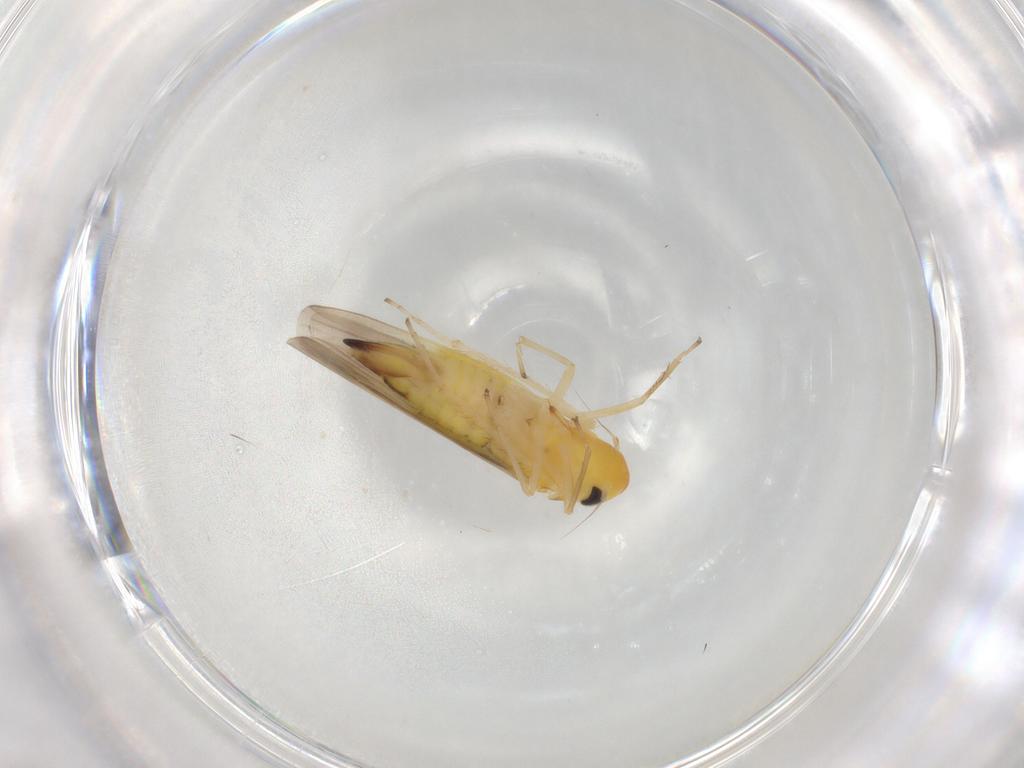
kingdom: Animalia
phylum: Arthropoda
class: Insecta
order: Hemiptera
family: Cicadellidae
